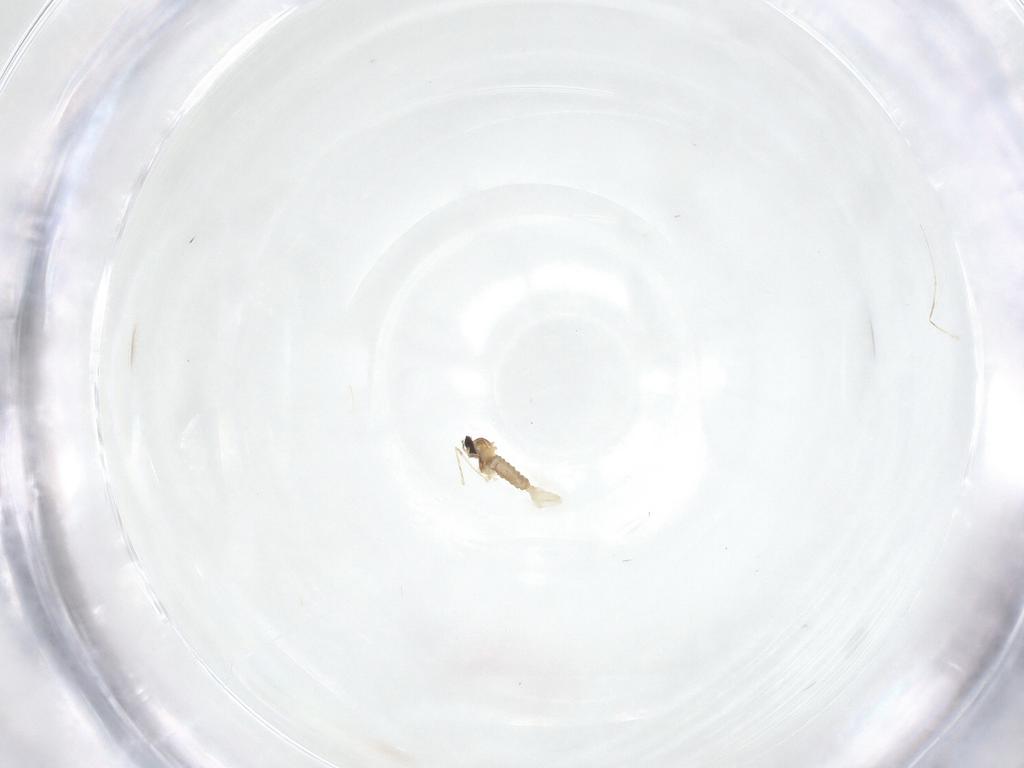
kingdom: Animalia
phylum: Arthropoda
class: Insecta
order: Diptera
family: Cecidomyiidae
